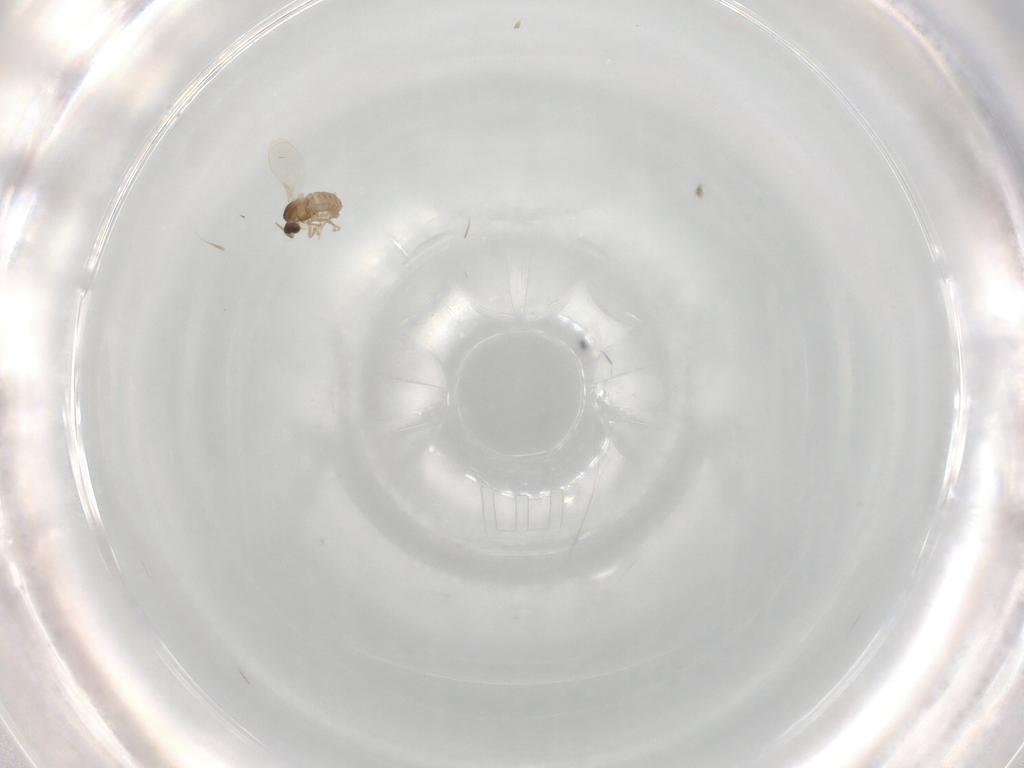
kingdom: Animalia
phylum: Arthropoda
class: Insecta
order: Diptera
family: Cecidomyiidae
